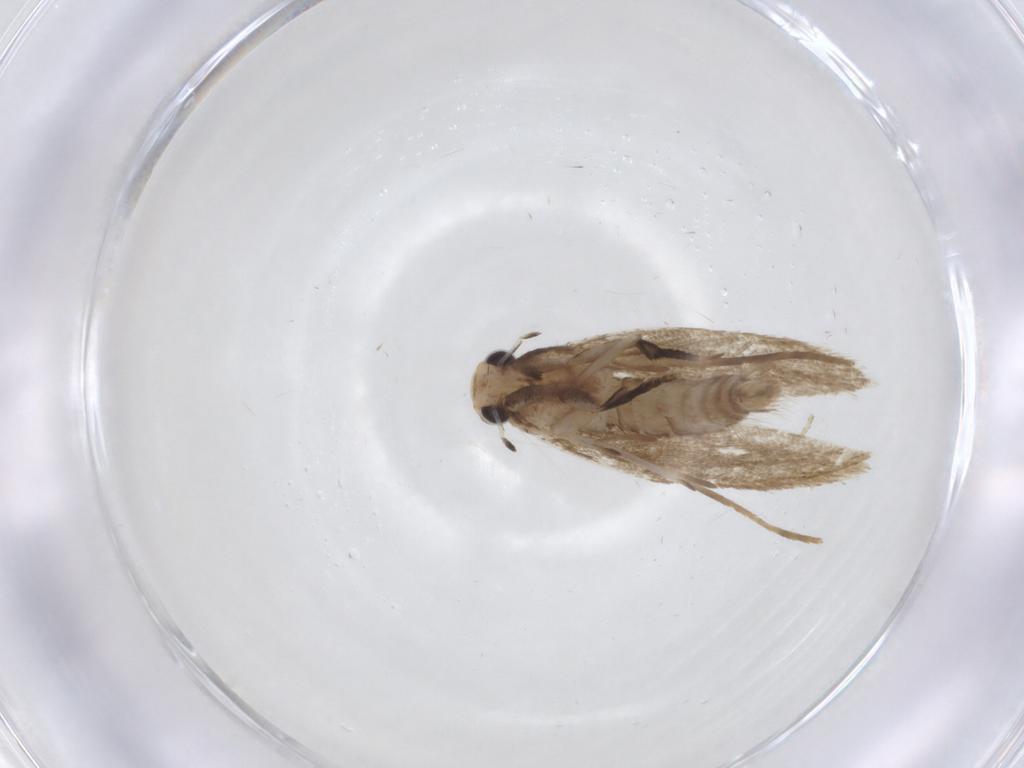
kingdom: Animalia
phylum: Arthropoda
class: Insecta
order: Lepidoptera
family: Tineidae
